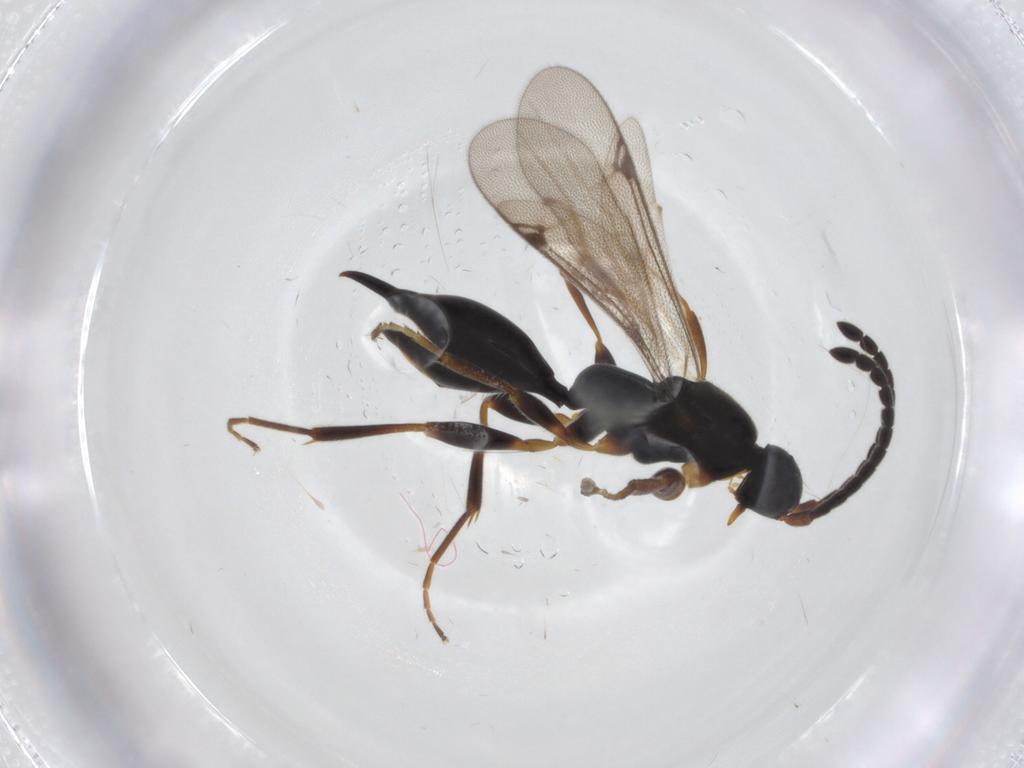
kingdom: Animalia
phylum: Arthropoda
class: Insecta
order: Hymenoptera
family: Proctotrupidae
